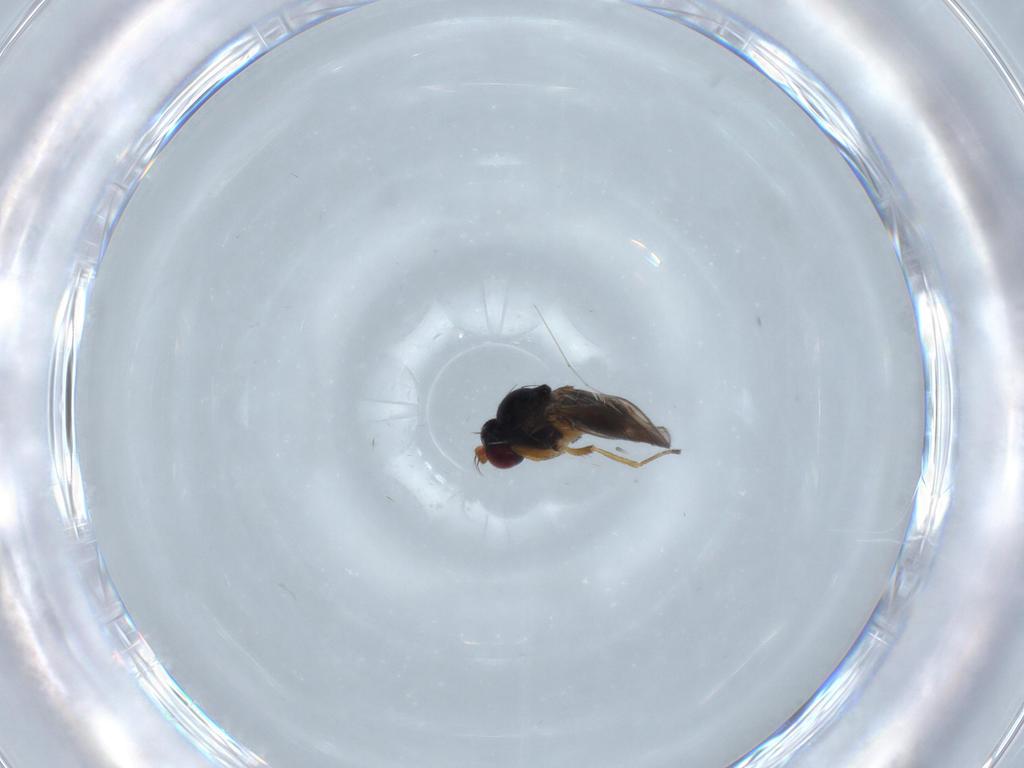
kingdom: Animalia
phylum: Arthropoda
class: Insecta
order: Diptera
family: Ephydridae
